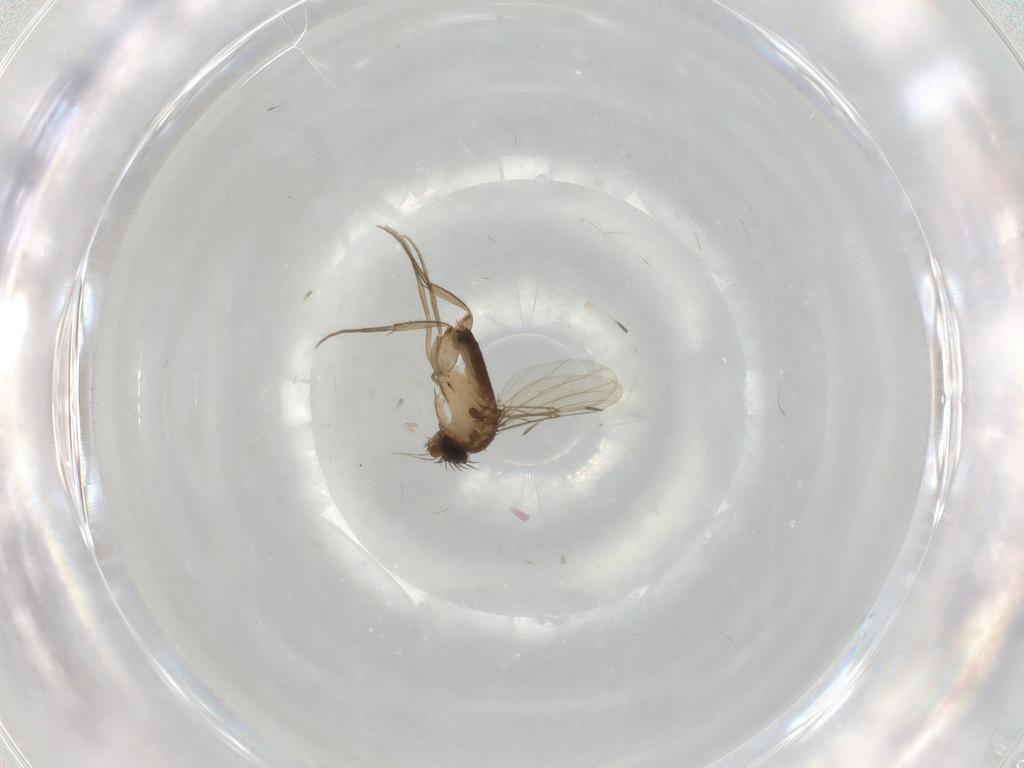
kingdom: Animalia
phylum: Arthropoda
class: Insecta
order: Diptera
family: Phoridae
